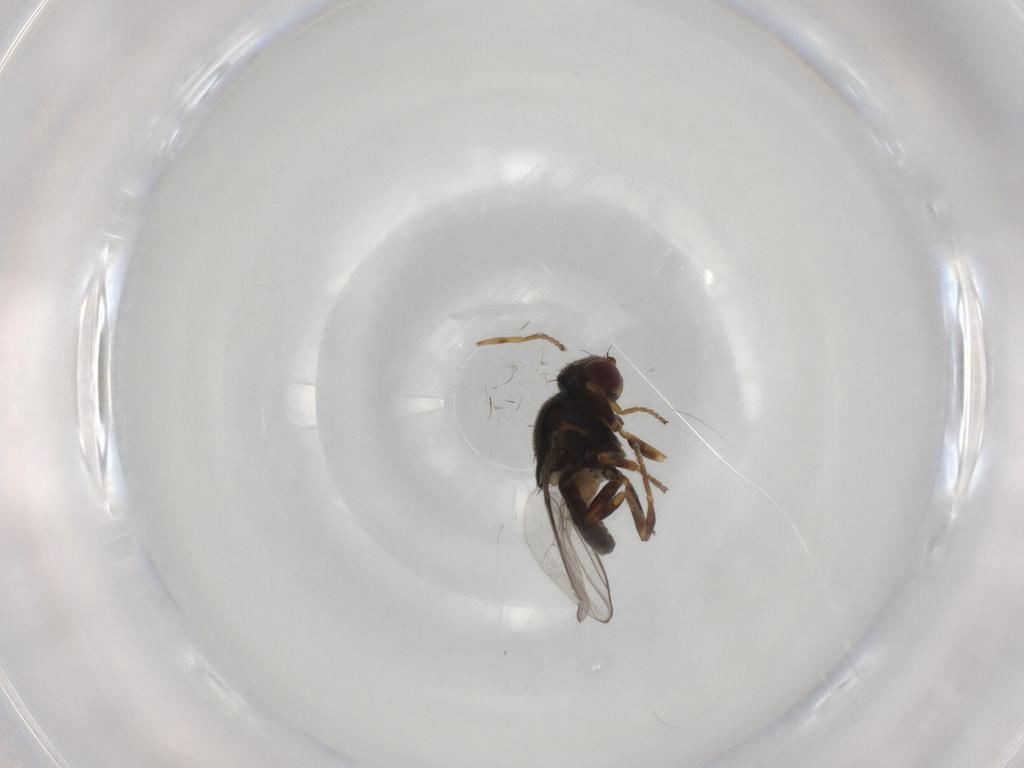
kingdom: Animalia
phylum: Arthropoda
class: Insecta
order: Diptera
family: Chloropidae
